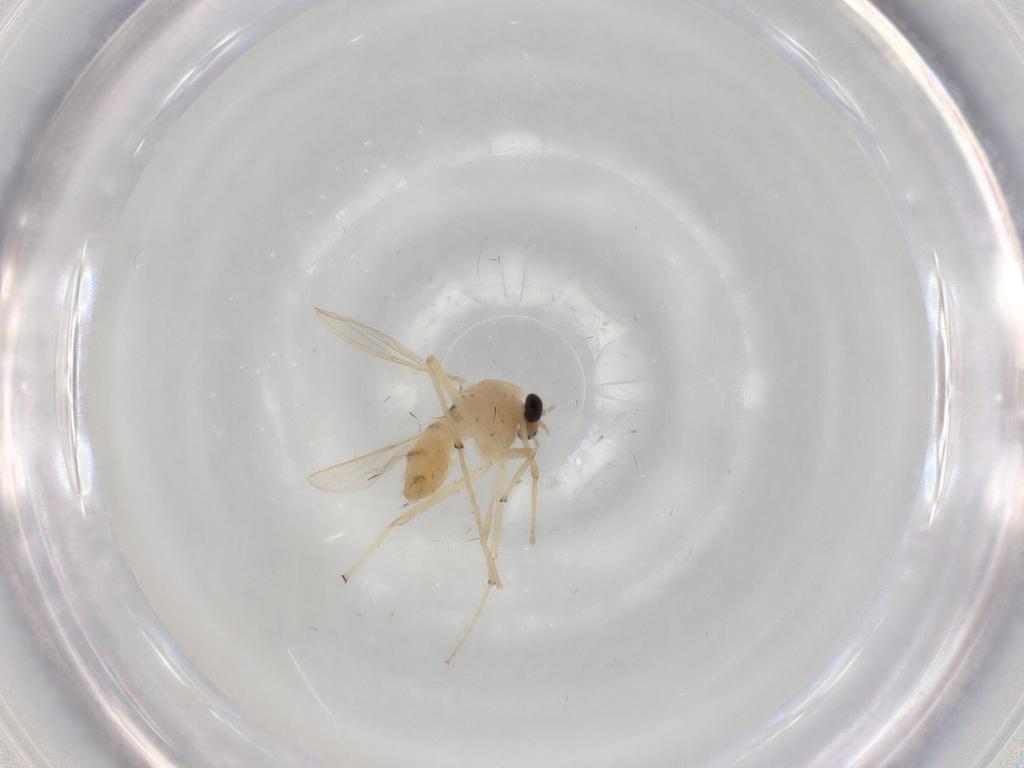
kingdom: Animalia
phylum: Arthropoda
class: Insecta
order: Diptera
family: Chironomidae
